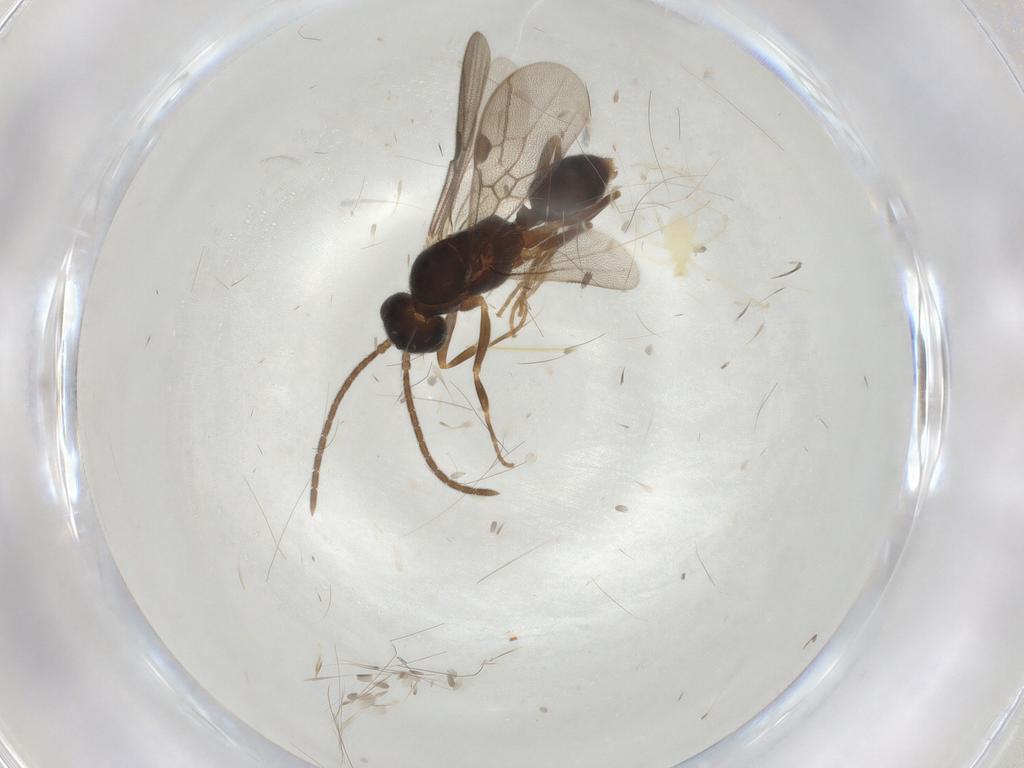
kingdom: Animalia
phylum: Arthropoda
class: Insecta
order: Hymenoptera
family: Formicidae
